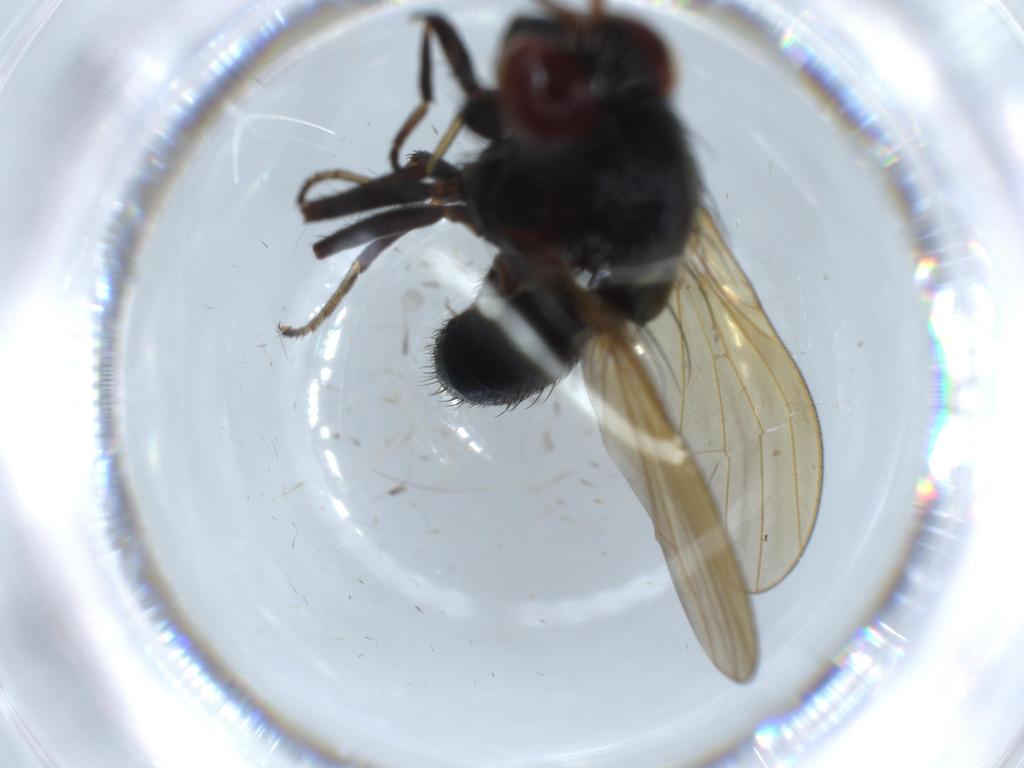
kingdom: Animalia
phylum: Arthropoda
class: Insecta
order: Diptera
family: Lauxaniidae
